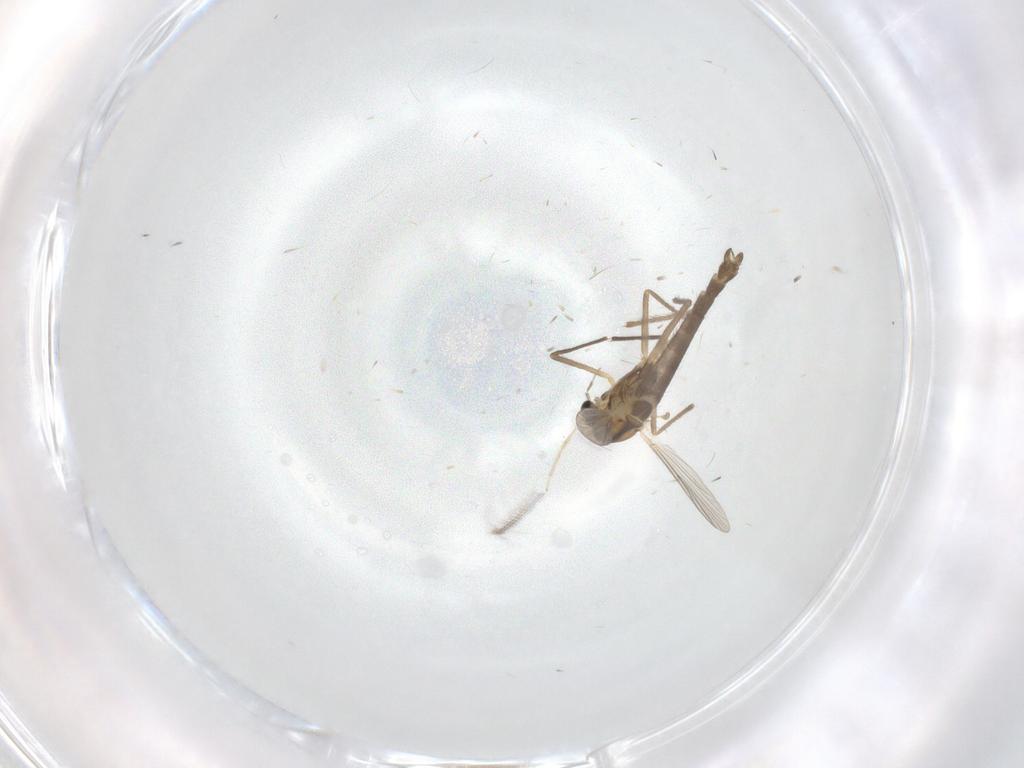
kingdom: Animalia
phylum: Arthropoda
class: Insecta
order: Diptera
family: Chironomidae
